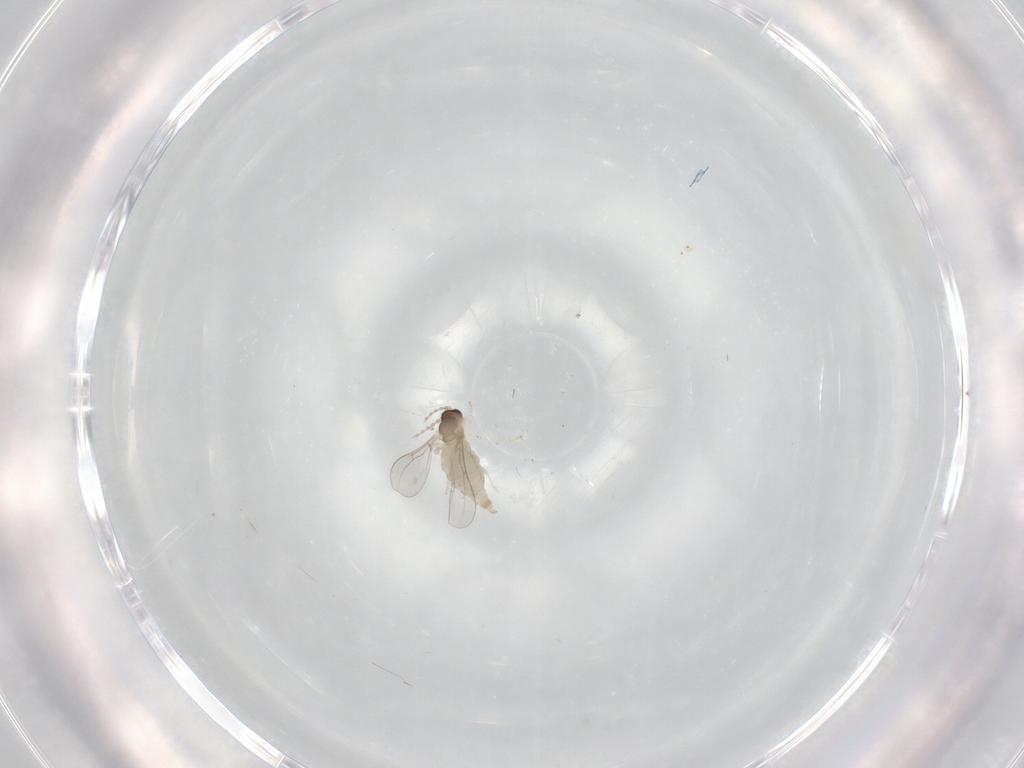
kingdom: Animalia
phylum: Arthropoda
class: Insecta
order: Diptera
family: Cecidomyiidae
